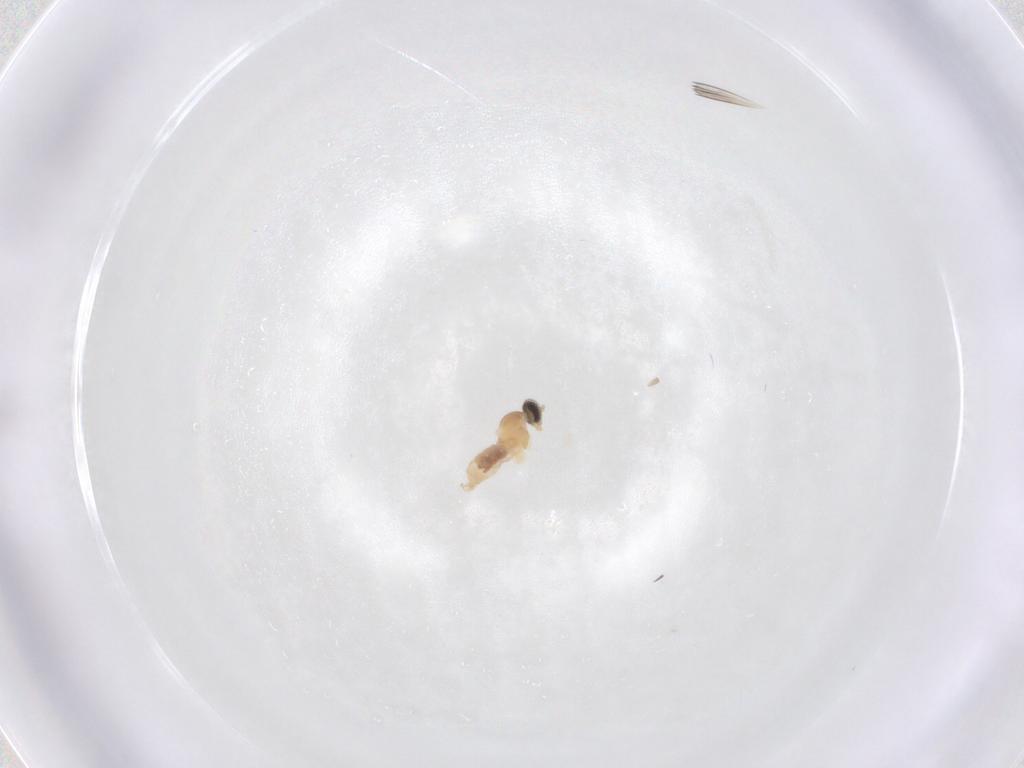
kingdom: Animalia
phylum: Arthropoda
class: Insecta
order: Diptera
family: Cecidomyiidae
